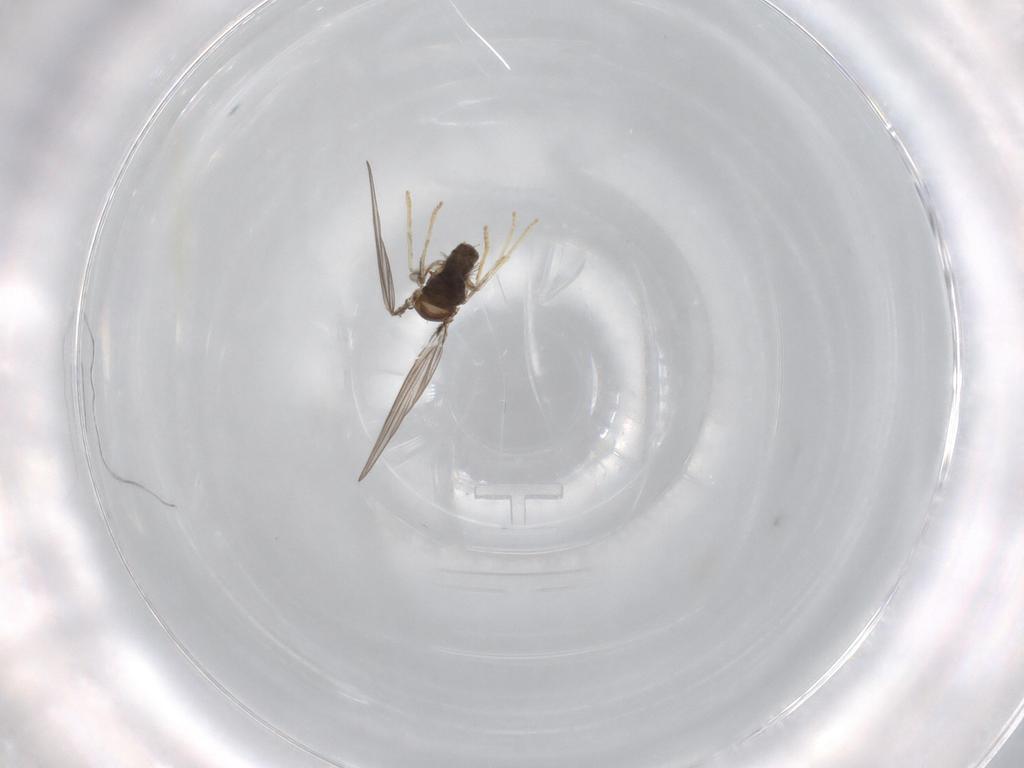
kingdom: Animalia
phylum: Arthropoda
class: Insecta
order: Diptera
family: Psychodidae
